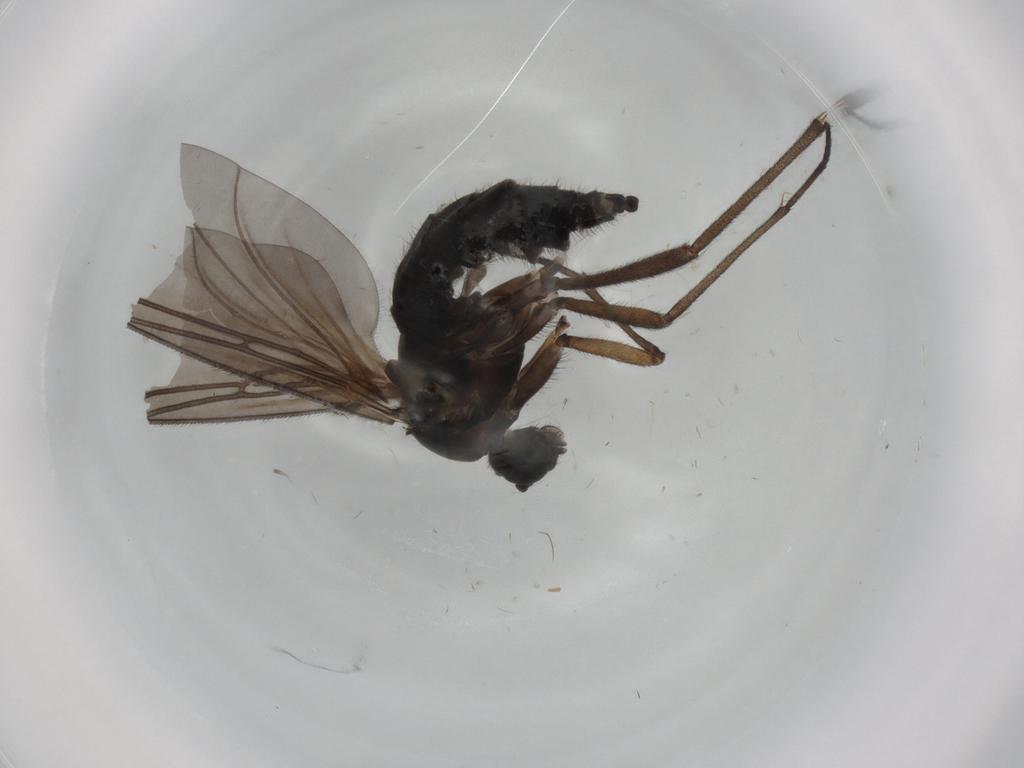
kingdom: Animalia
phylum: Arthropoda
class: Insecta
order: Diptera
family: Sciaridae
